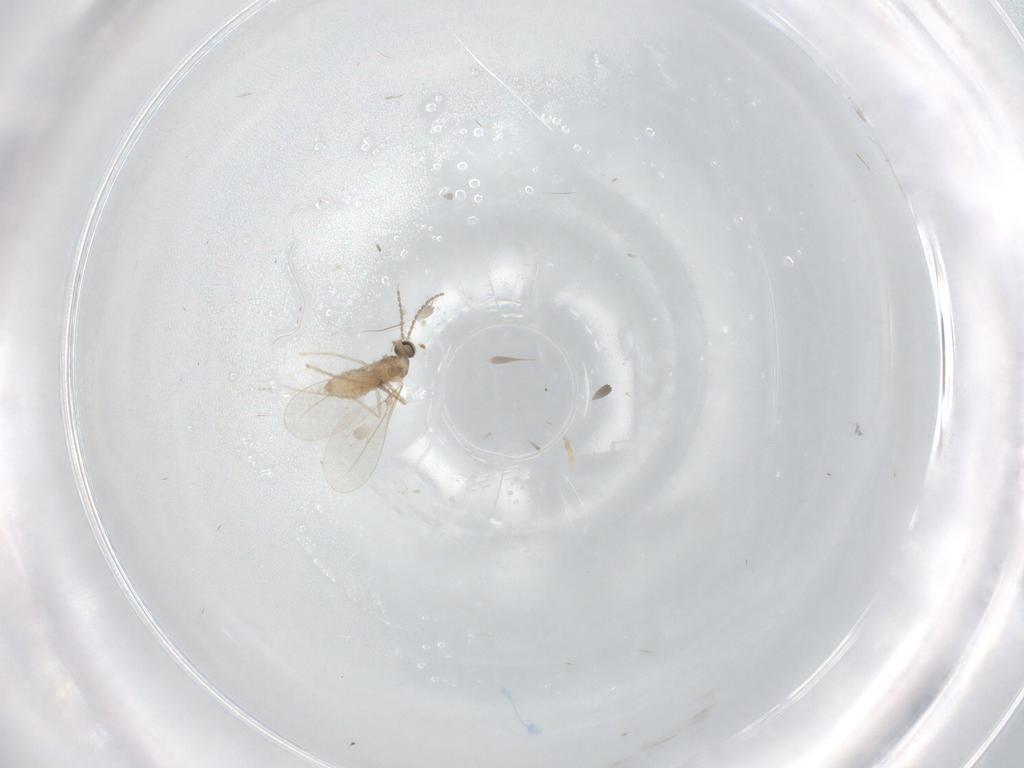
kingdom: Animalia
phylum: Arthropoda
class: Insecta
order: Diptera
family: Cecidomyiidae
